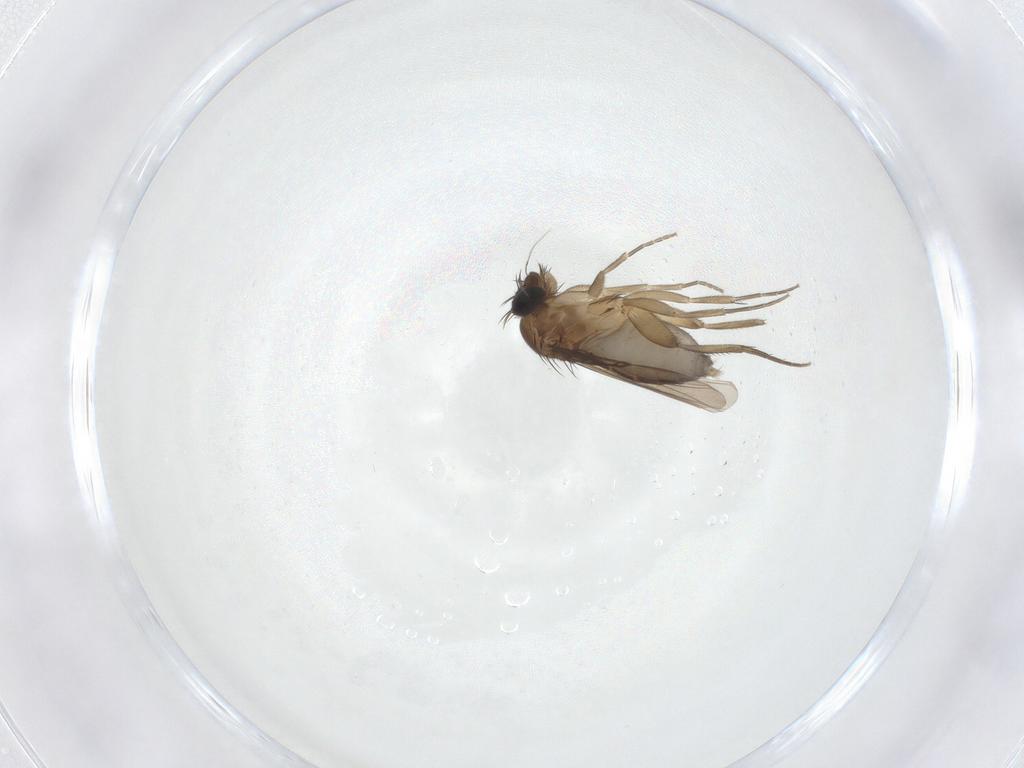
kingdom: Animalia
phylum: Arthropoda
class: Insecta
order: Diptera
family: Phoridae
